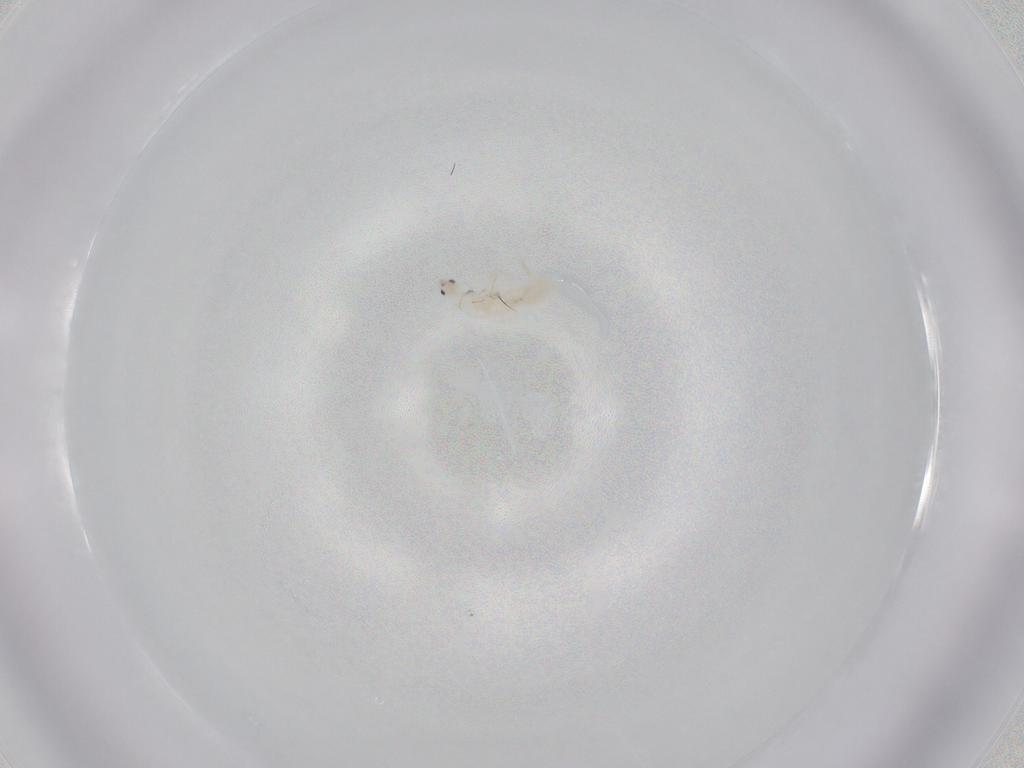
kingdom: Animalia
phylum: Arthropoda
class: Collembola
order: Entomobryomorpha
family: Entomobryidae
